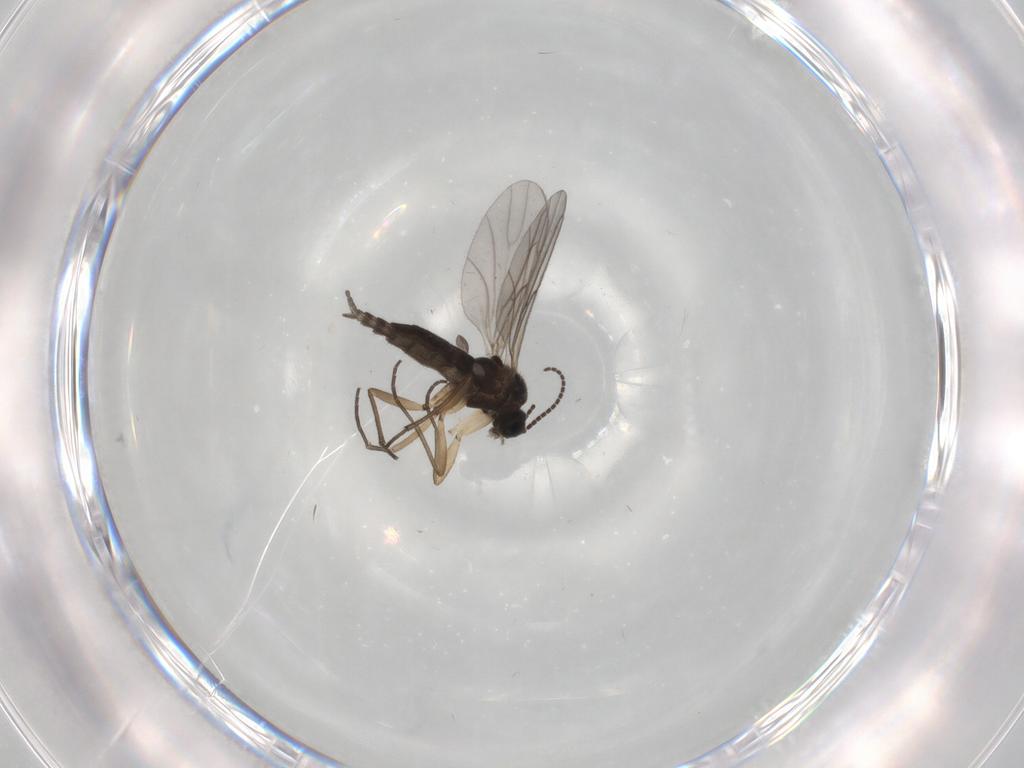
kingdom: Animalia
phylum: Arthropoda
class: Insecta
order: Diptera
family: Sciaridae
